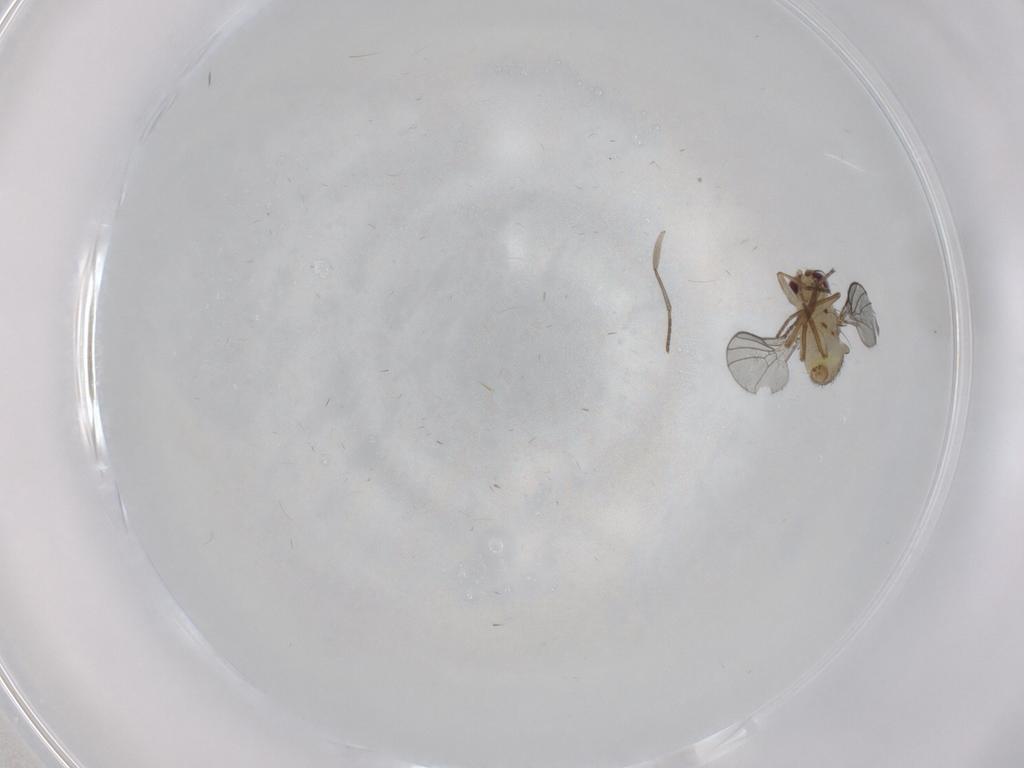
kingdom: Animalia
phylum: Arthropoda
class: Insecta
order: Diptera
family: Agromyzidae
